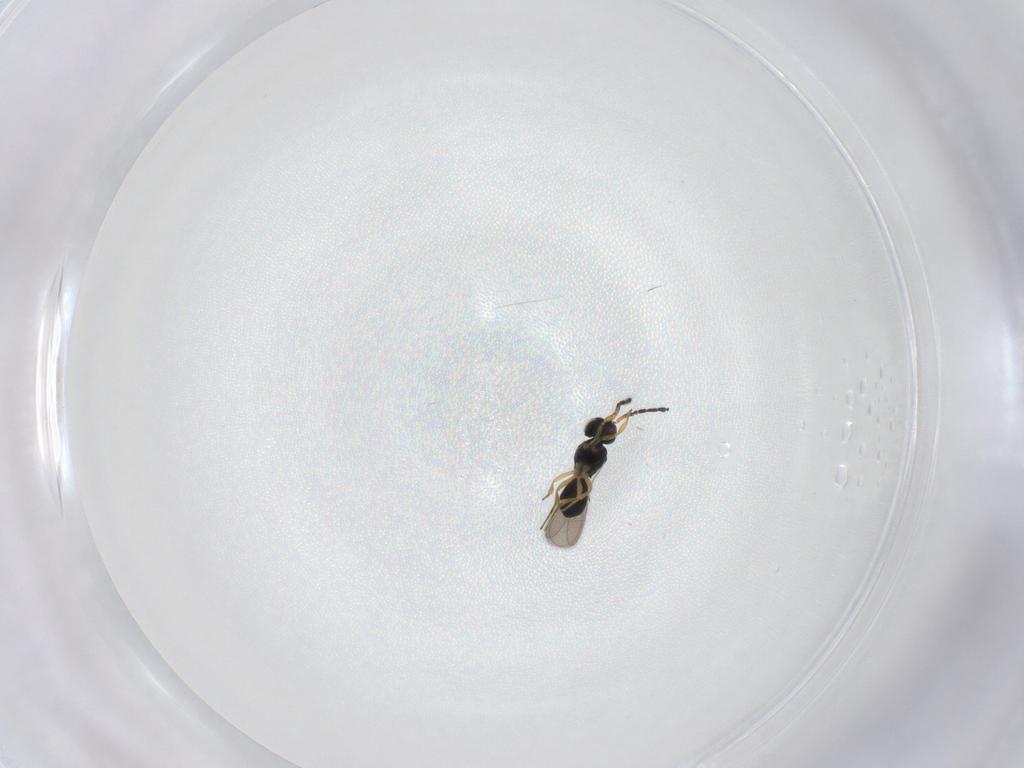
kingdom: Animalia
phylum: Arthropoda
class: Insecta
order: Hymenoptera
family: Scelionidae
